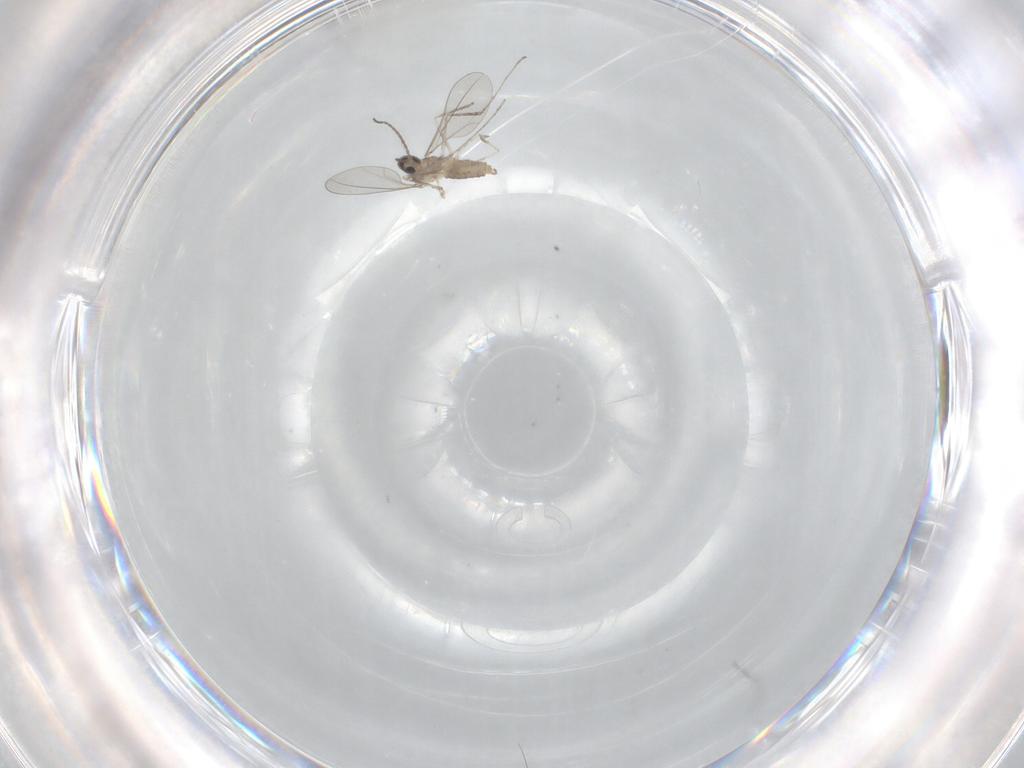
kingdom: Animalia
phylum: Arthropoda
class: Insecta
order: Diptera
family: Cecidomyiidae
